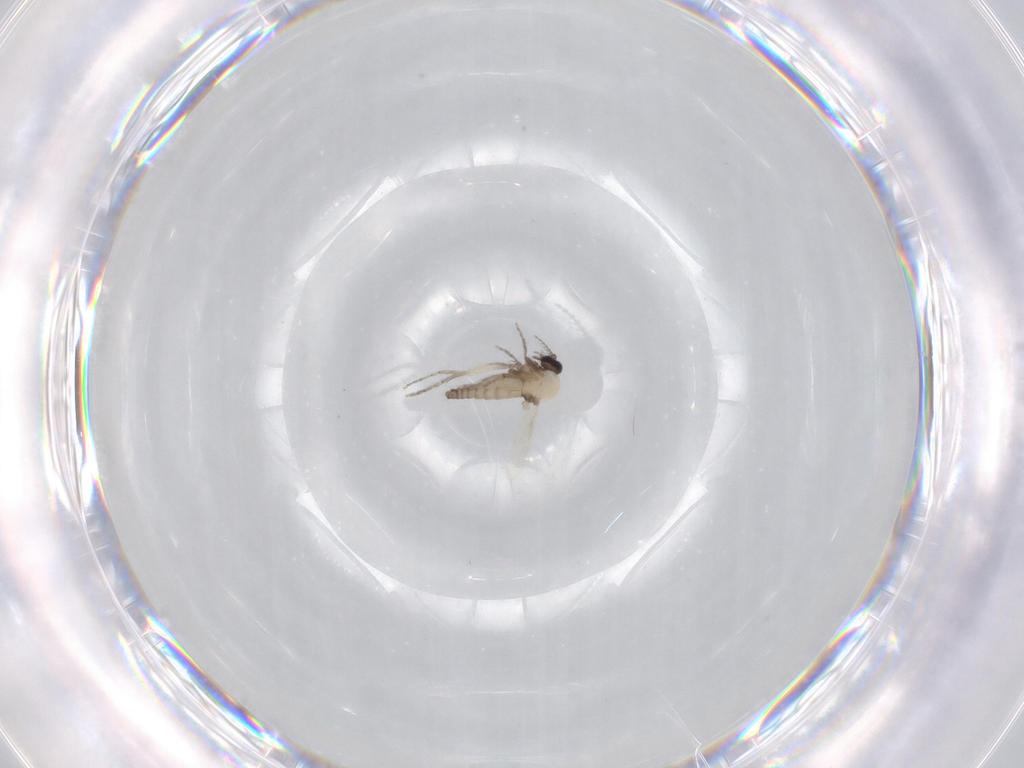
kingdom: Animalia
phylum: Arthropoda
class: Insecta
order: Diptera
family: Ceratopogonidae
